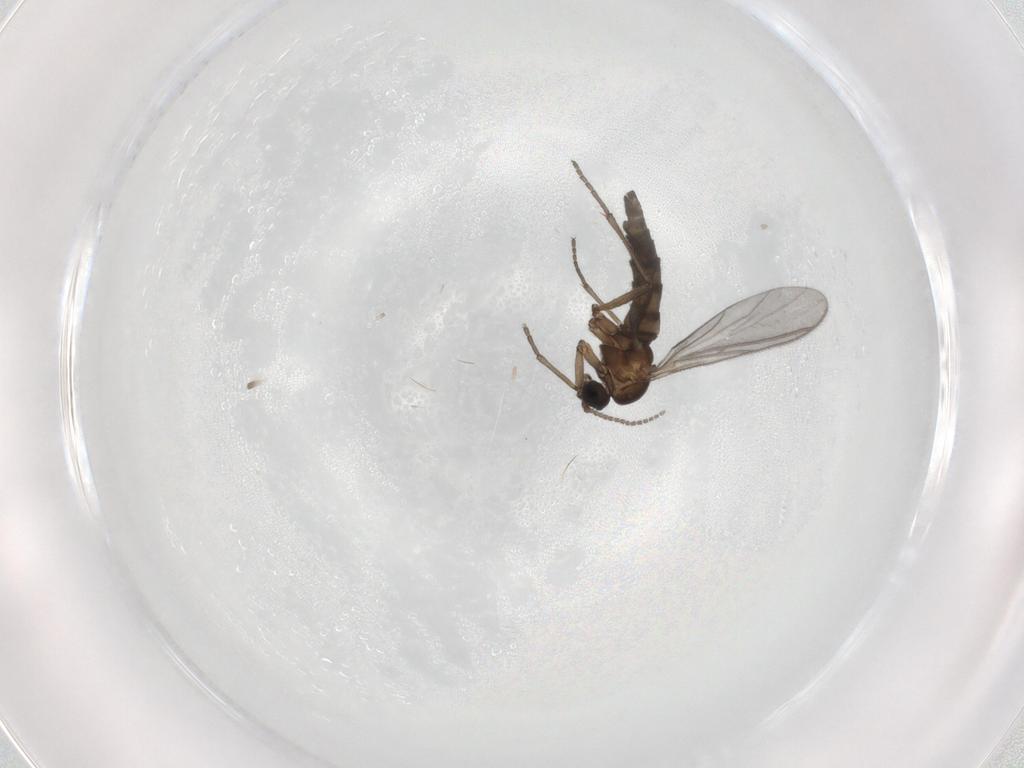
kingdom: Animalia
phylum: Arthropoda
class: Insecta
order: Diptera
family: Sciaridae
